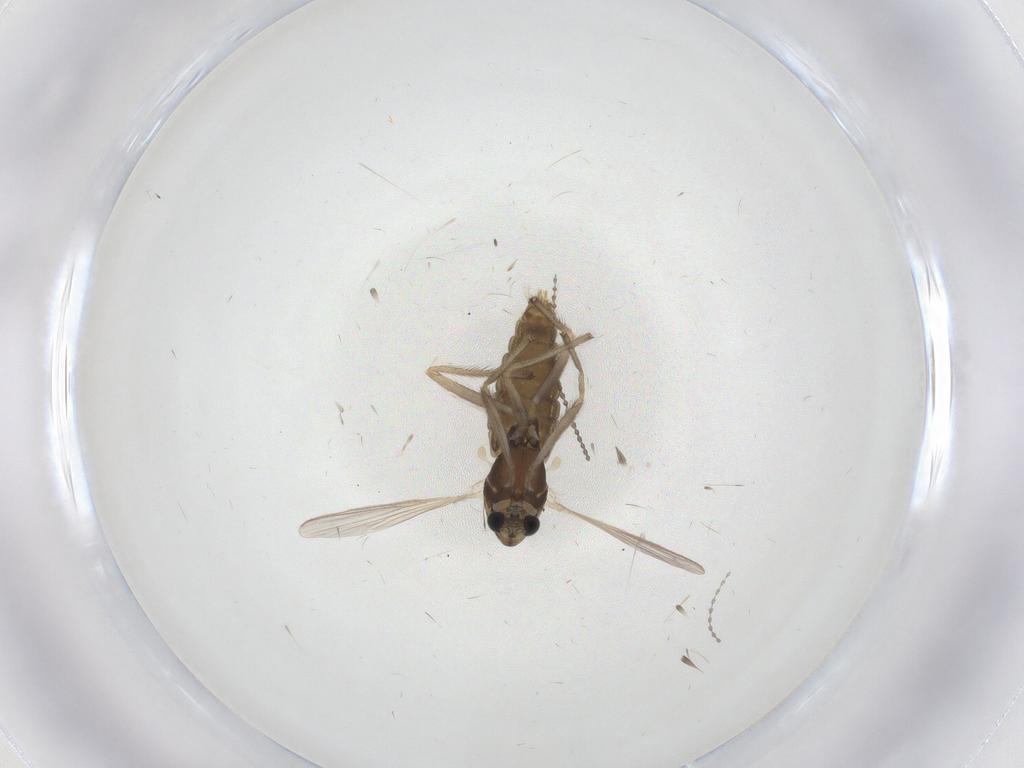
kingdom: Animalia
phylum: Arthropoda
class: Insecta
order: Diptera
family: Chironomidae
